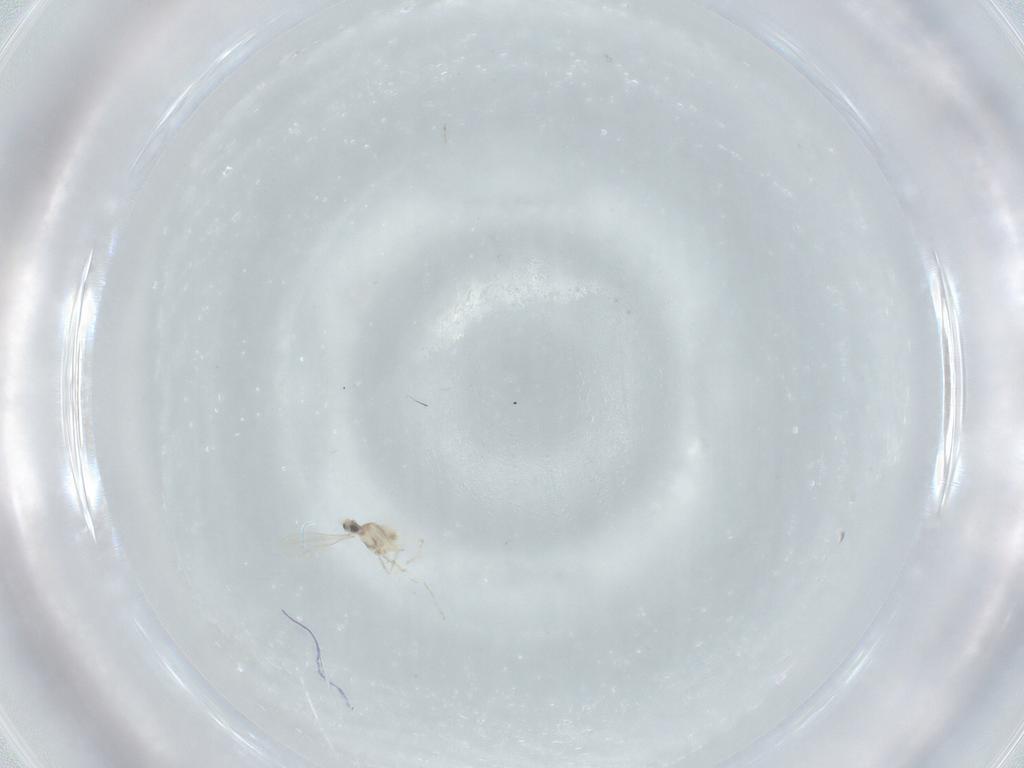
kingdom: Animalia
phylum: Arthropoda
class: Insecta
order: Diptera
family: Cecidomyiidae
